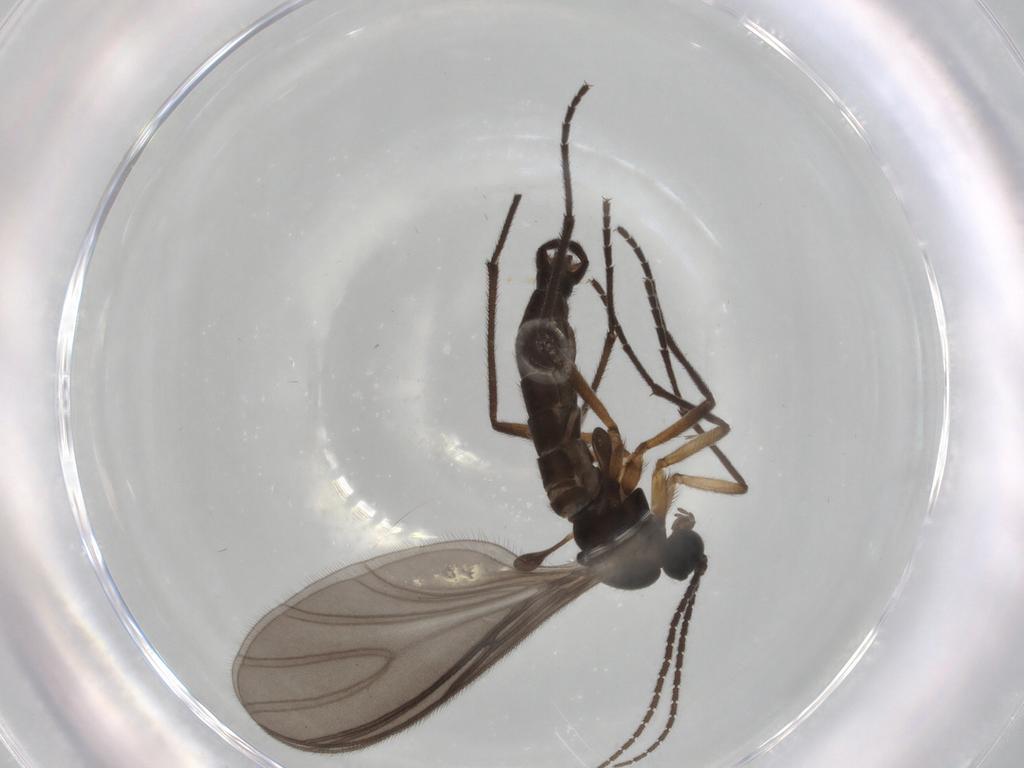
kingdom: Animalia
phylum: Arthropoda
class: Insecta
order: Diptera
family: Sciaridae
